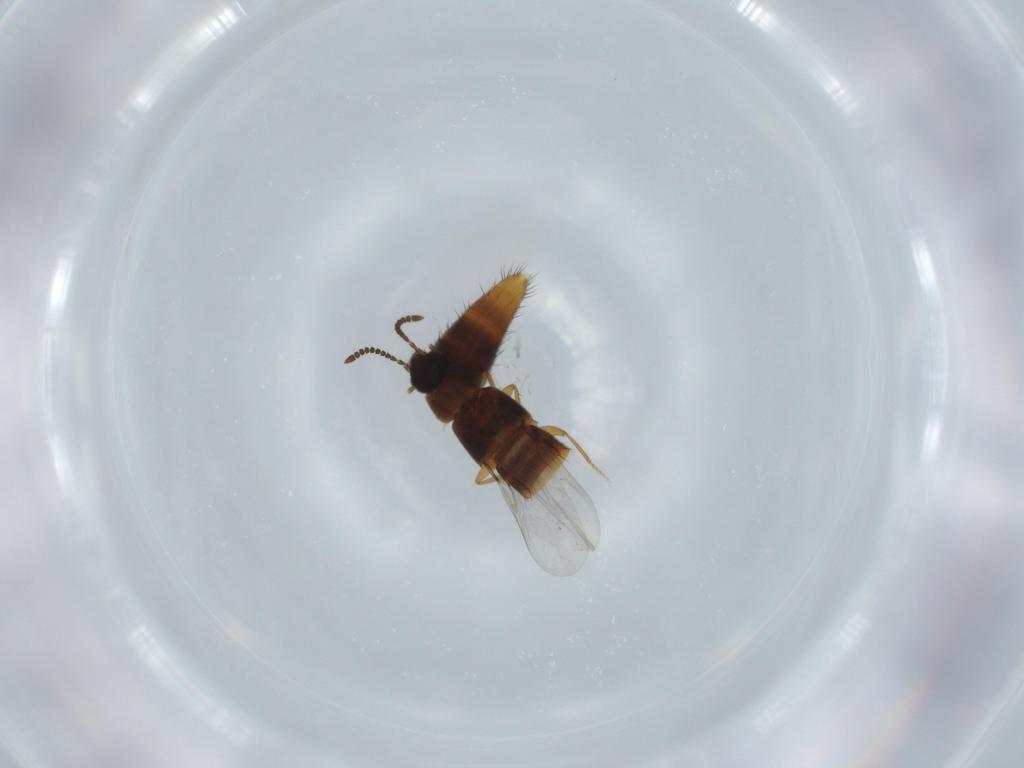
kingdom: Animalia
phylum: Arthropoda
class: Insecta
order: Coleoptera
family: Staphylinidae
